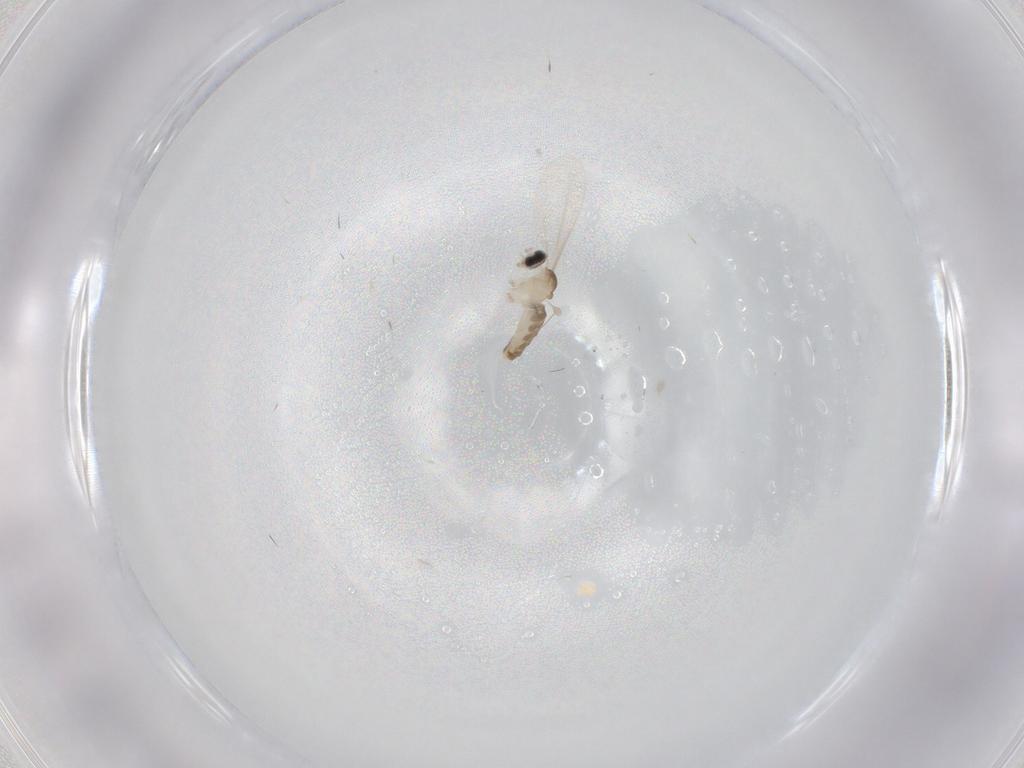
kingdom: Animalia
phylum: Arthropoda
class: Insecta
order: Diptera
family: Cecidomyiidae
